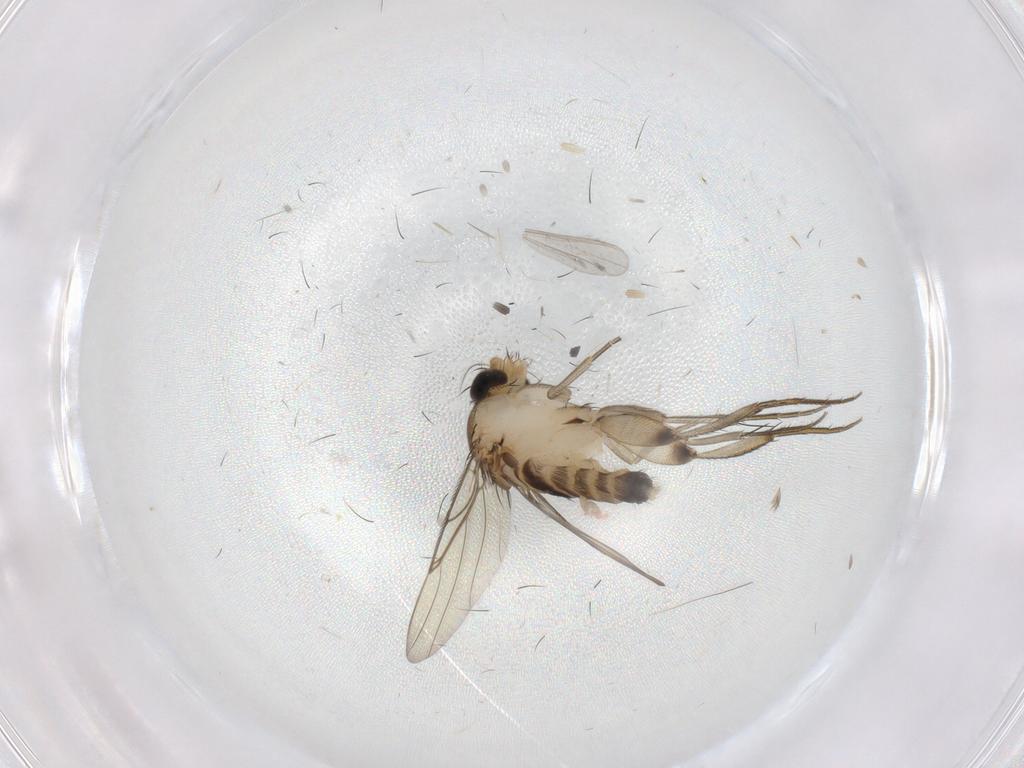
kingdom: Animalia
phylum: Arthropoda
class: Insecta
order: Diptera
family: Phoridae
